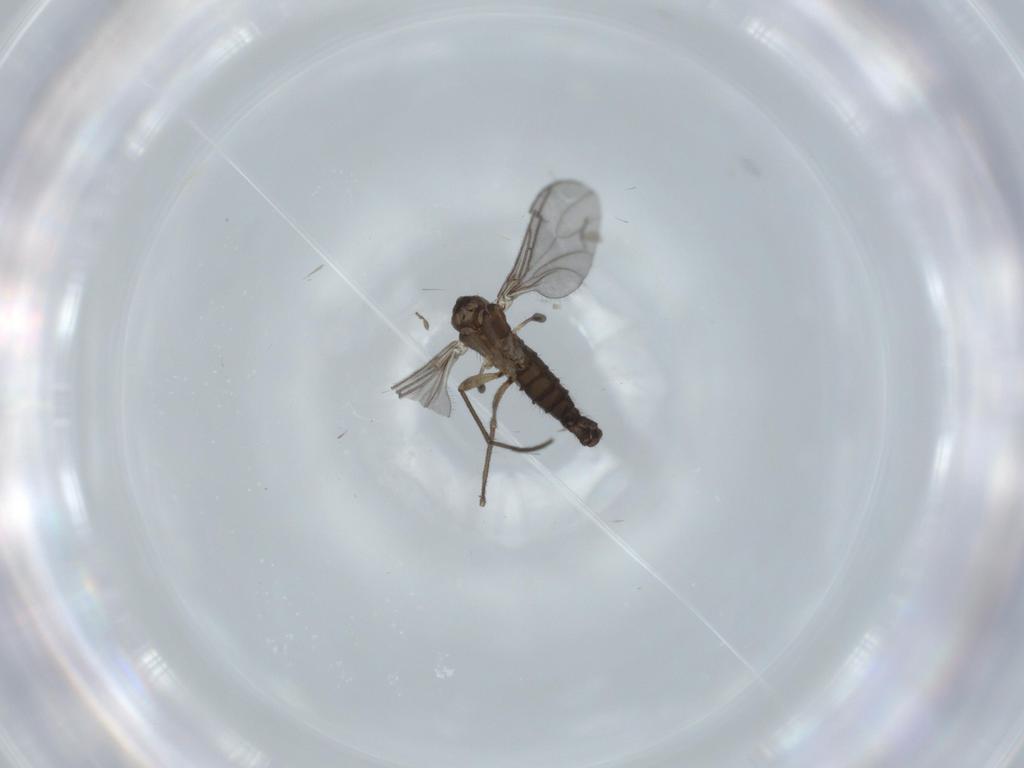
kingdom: Animalia
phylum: Arthropoda
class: Insecta
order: Diptera
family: Sciaridae
